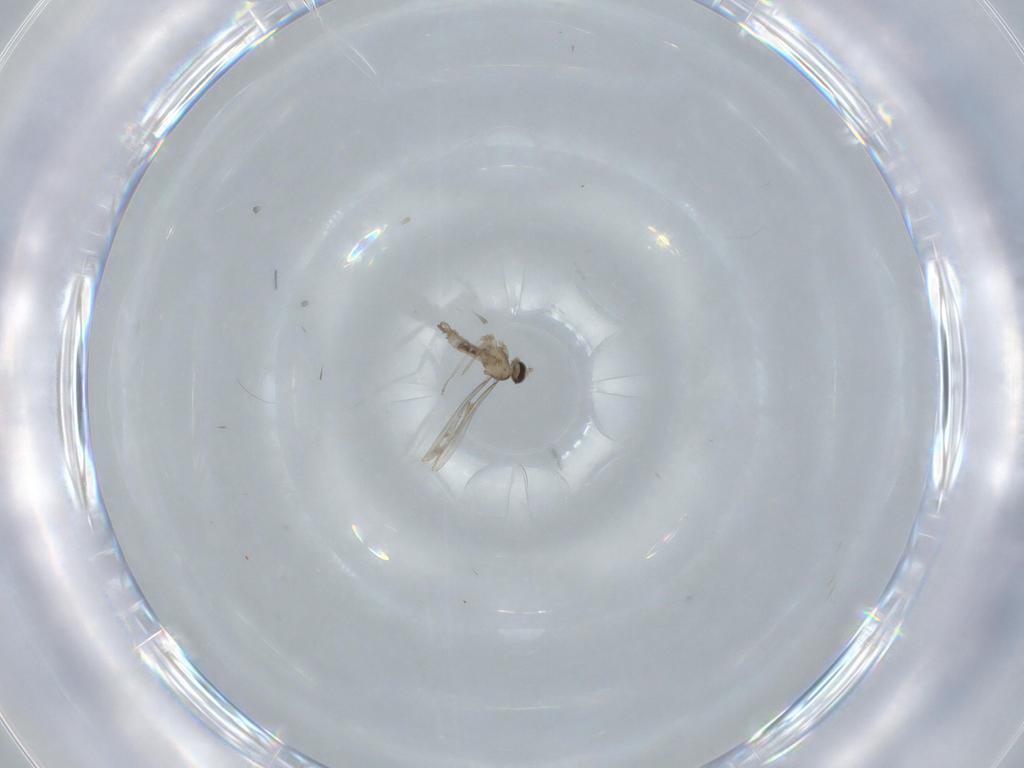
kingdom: Animalia
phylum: Arthropoda
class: Insecta
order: Diptera
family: Cecidomyiidae
